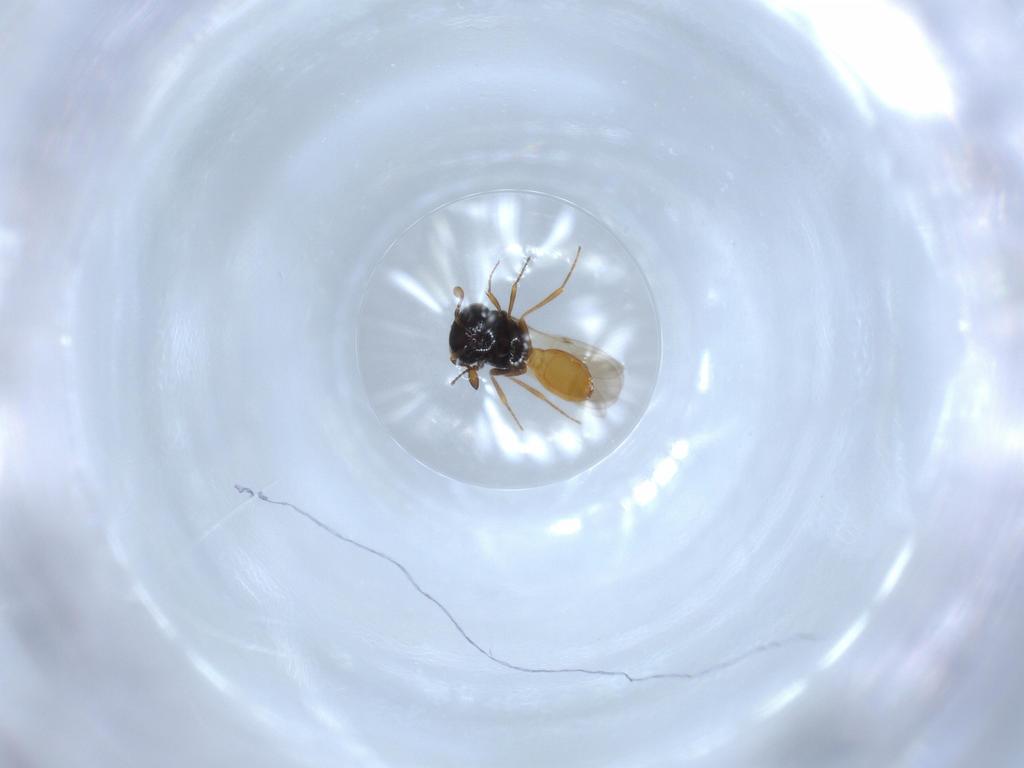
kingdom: Animalia
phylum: Arthropoda
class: Insecta
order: Hymenoptera
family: Scelionidae
